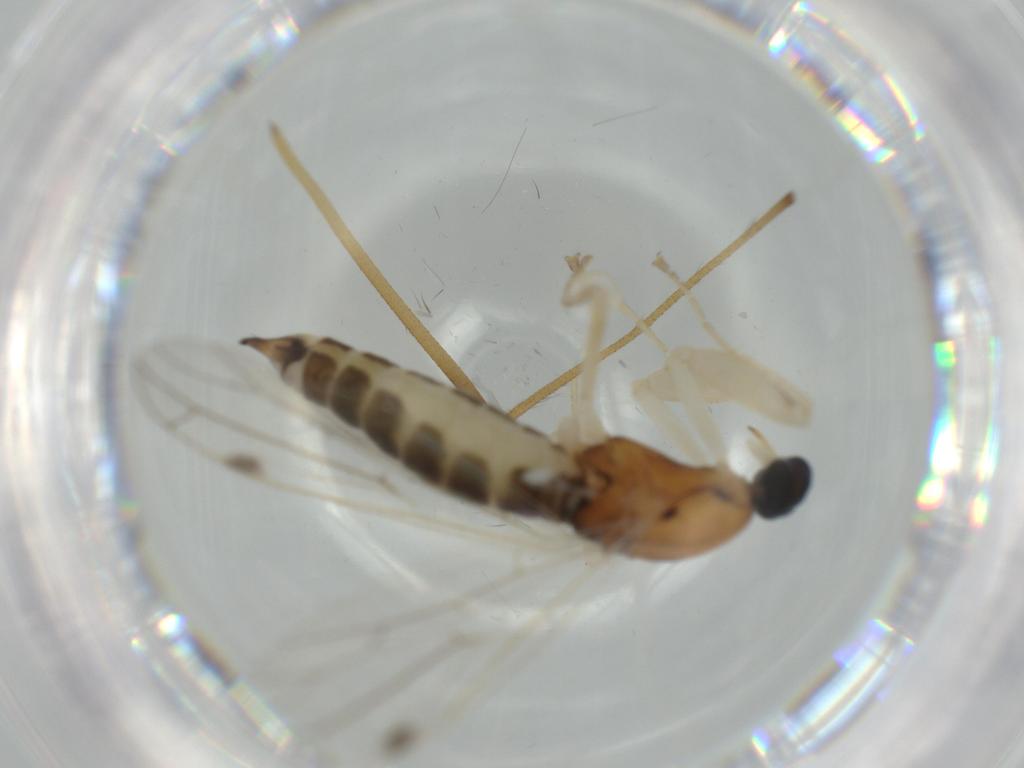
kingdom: Animalia
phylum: Arthropoda
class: Insecta
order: Diptera
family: Limoniidae
